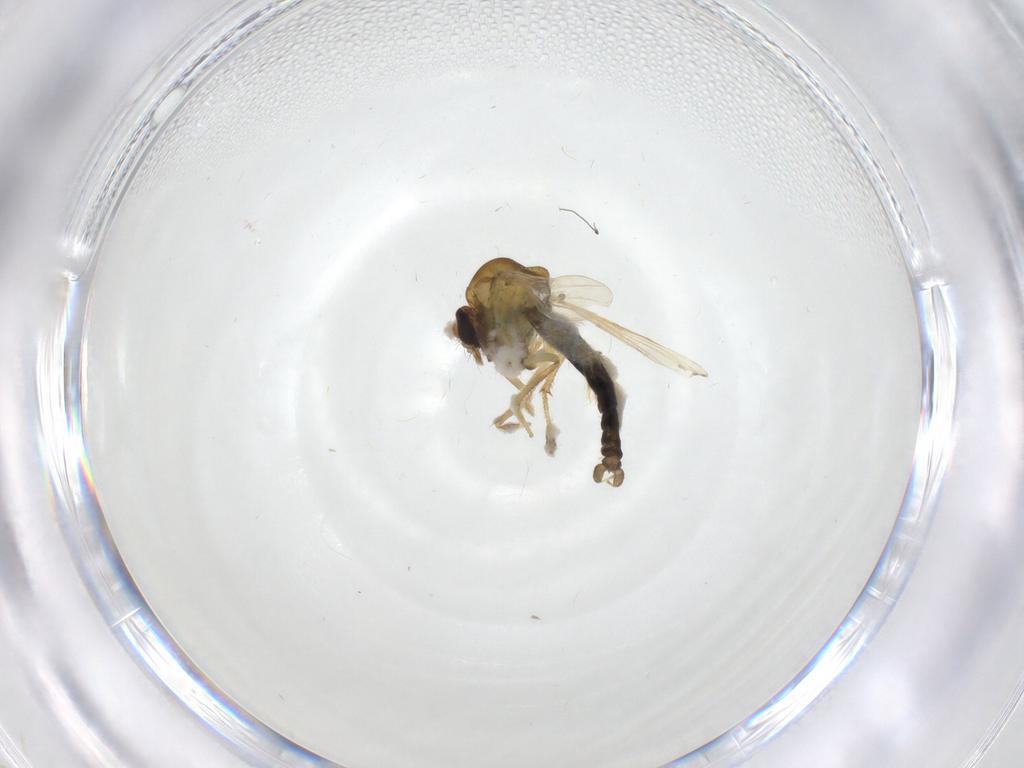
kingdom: Animalia
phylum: Arthropoda
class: Insecta
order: Diptera
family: Ceratopogonidae
